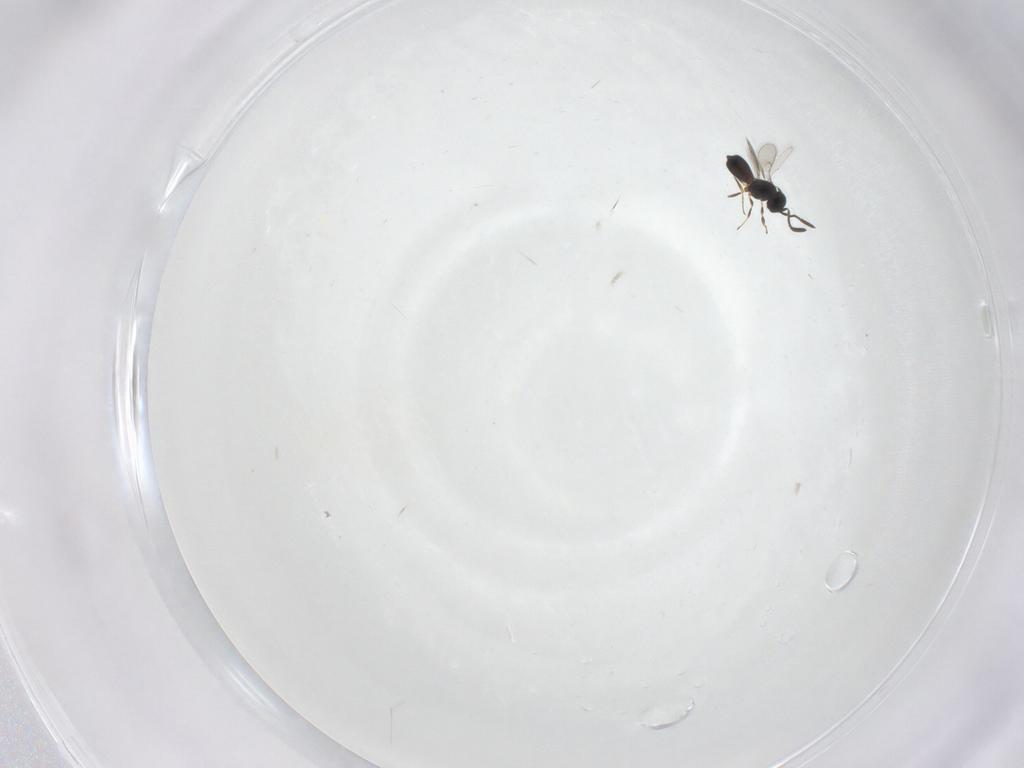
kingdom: Animalia
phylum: Arthropoda
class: Insecta
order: Hymenoptera
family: Scelionidae
